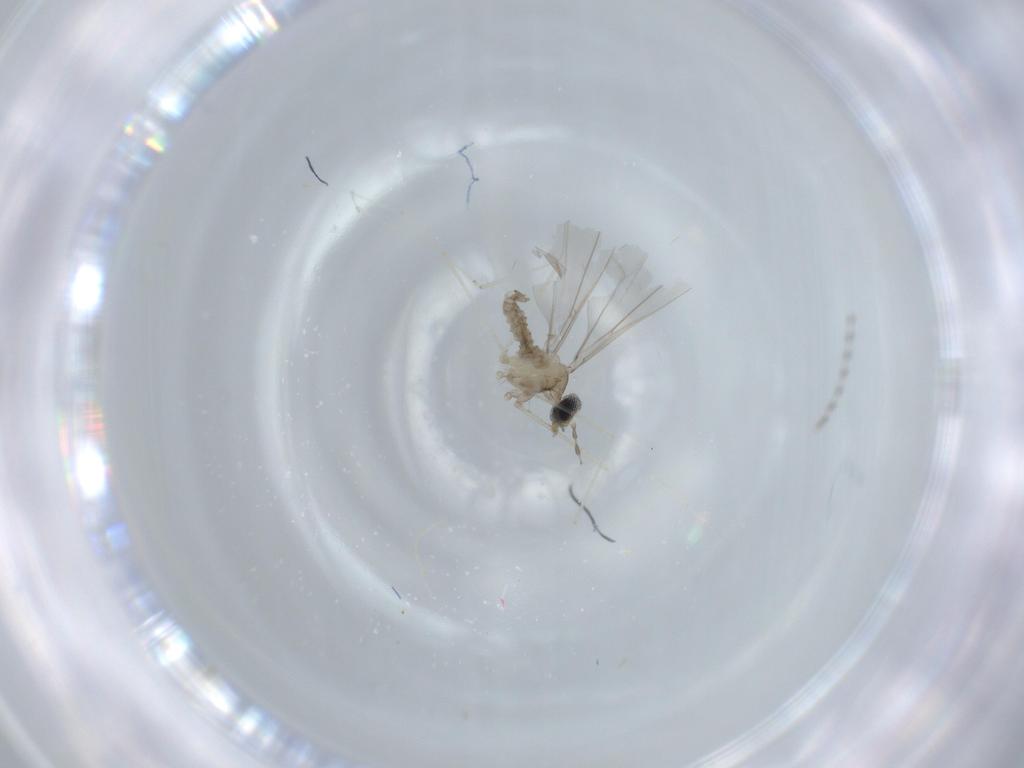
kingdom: Animalia
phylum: Arthropoda
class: Insecta
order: Diptera
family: Cecidomyiidae
